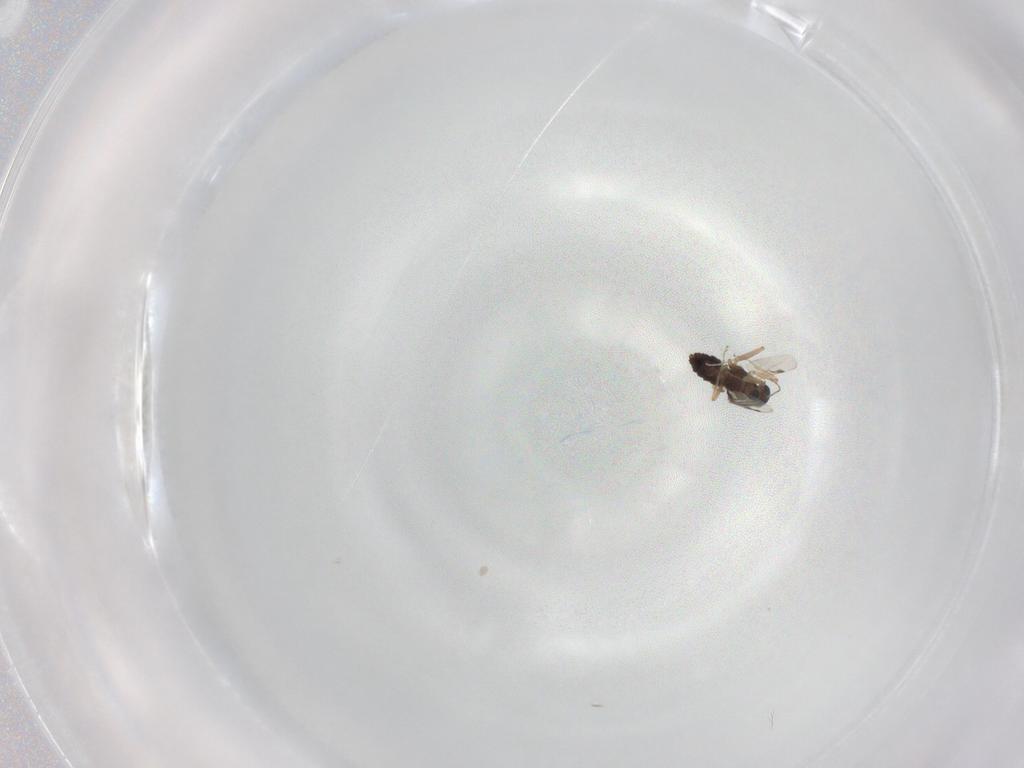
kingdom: Animalia
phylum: Arthropoda
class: Insecta
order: Diptera
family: Ceratopogonidae
